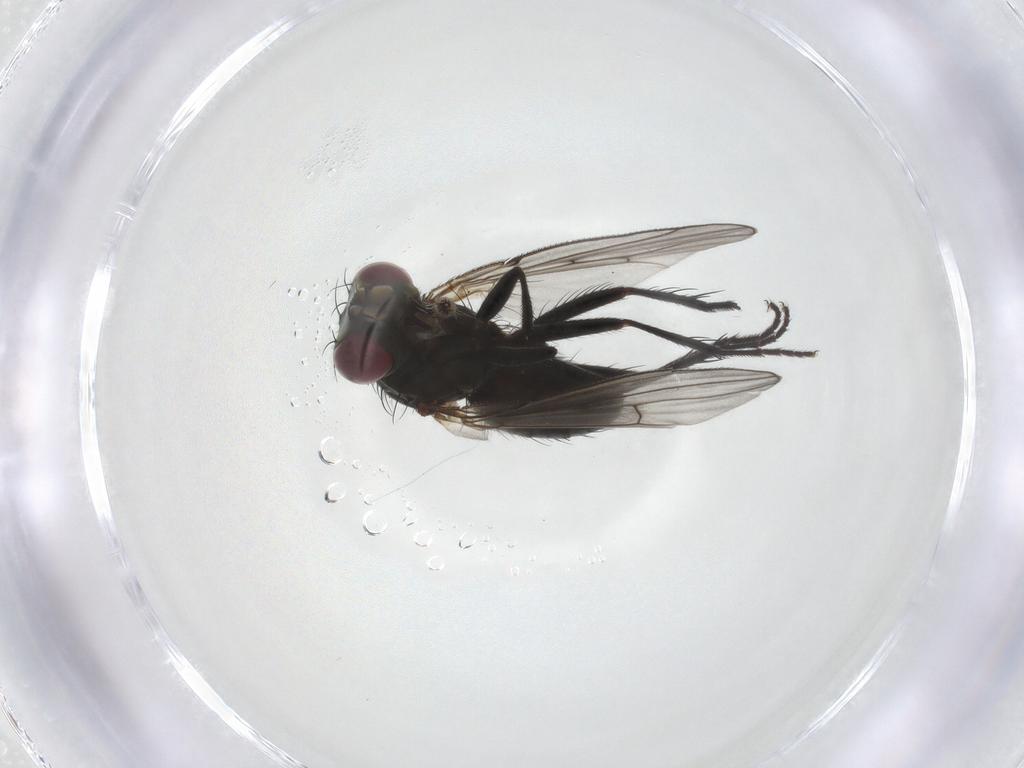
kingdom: Animalia
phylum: Arthropoda
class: Insecta
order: Diptera
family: Muscidae
